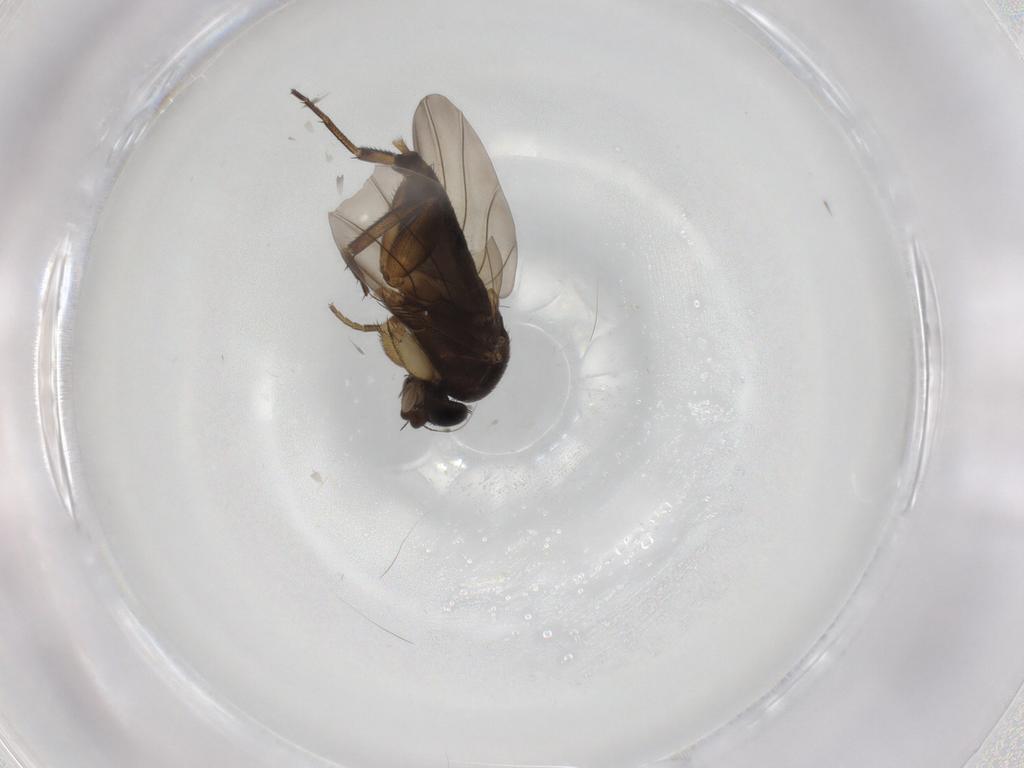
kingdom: Animalia
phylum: Arthropoda
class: Insecta
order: Diptera
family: Phoridae
